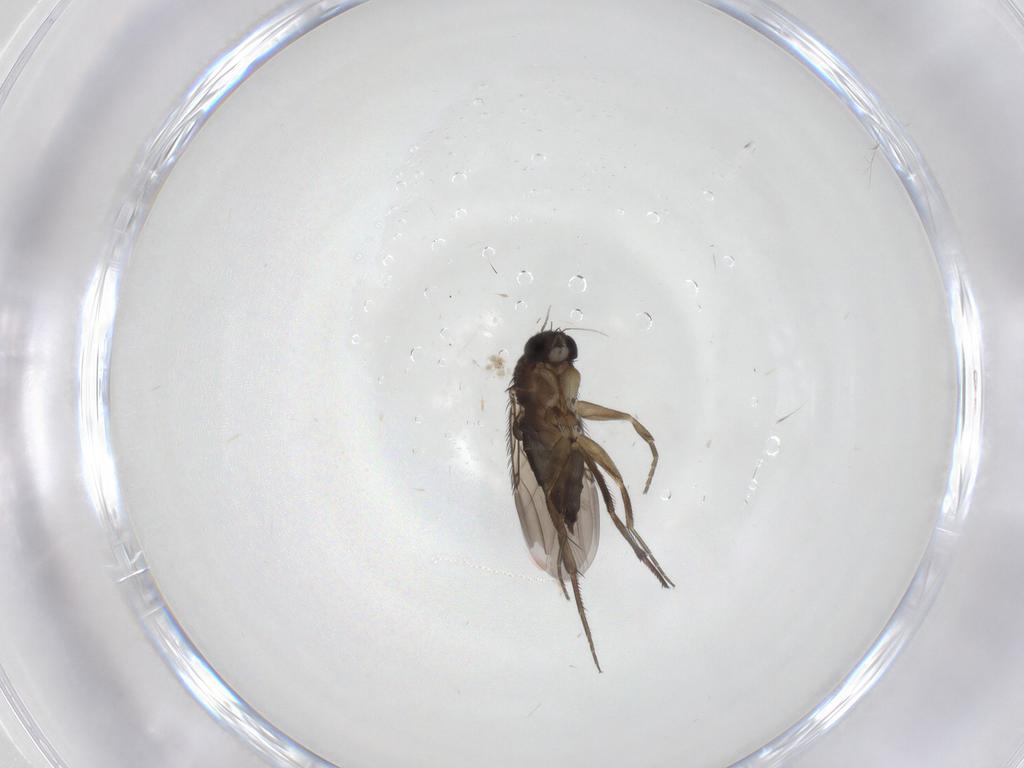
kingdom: Animalia
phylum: Arthropoda
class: Insecta
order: Diptera
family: Phoridae
